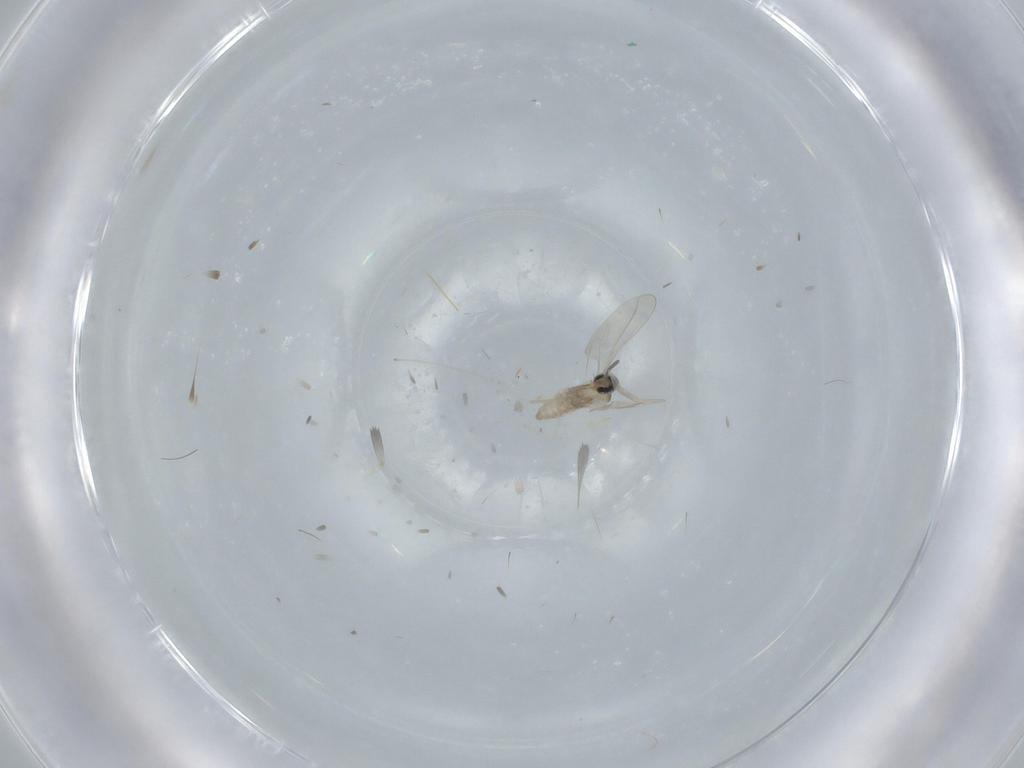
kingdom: Animalia
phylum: Arthropoda
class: Insecta
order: Diptera
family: Cecidomyiidae
